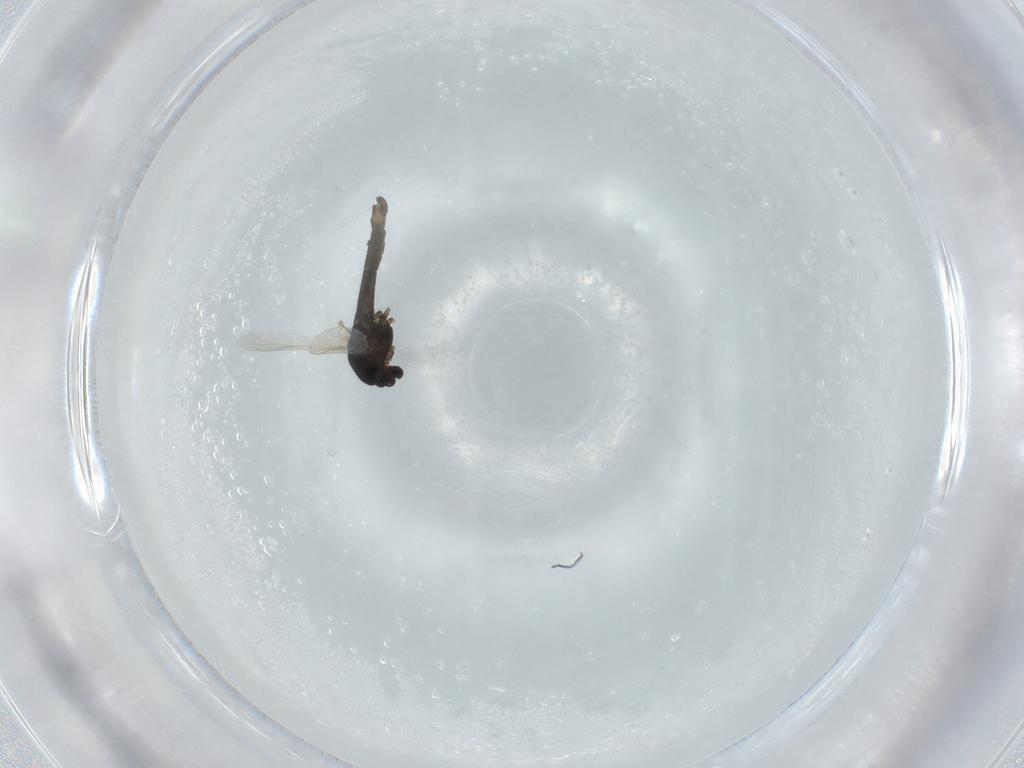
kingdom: Animalia
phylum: Arthropoda
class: Insecta
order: Diptera
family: Chironomidae
